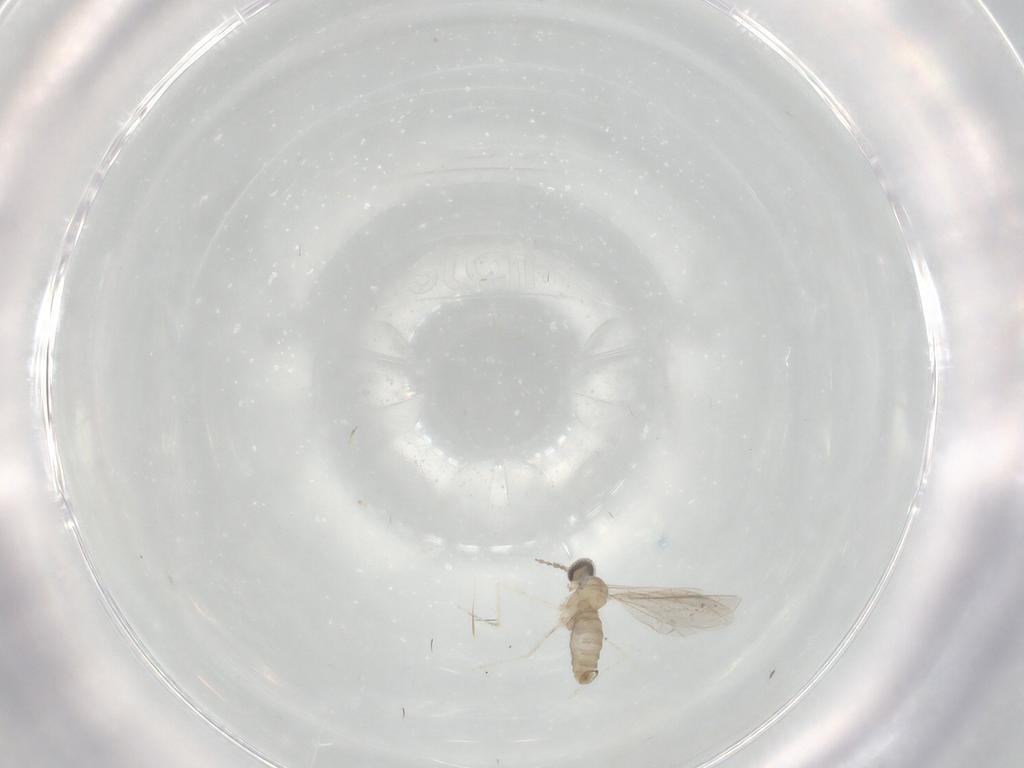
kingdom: Animalia
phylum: Arthropoda
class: Insecta
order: Diptera
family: Cecidomyiidae
